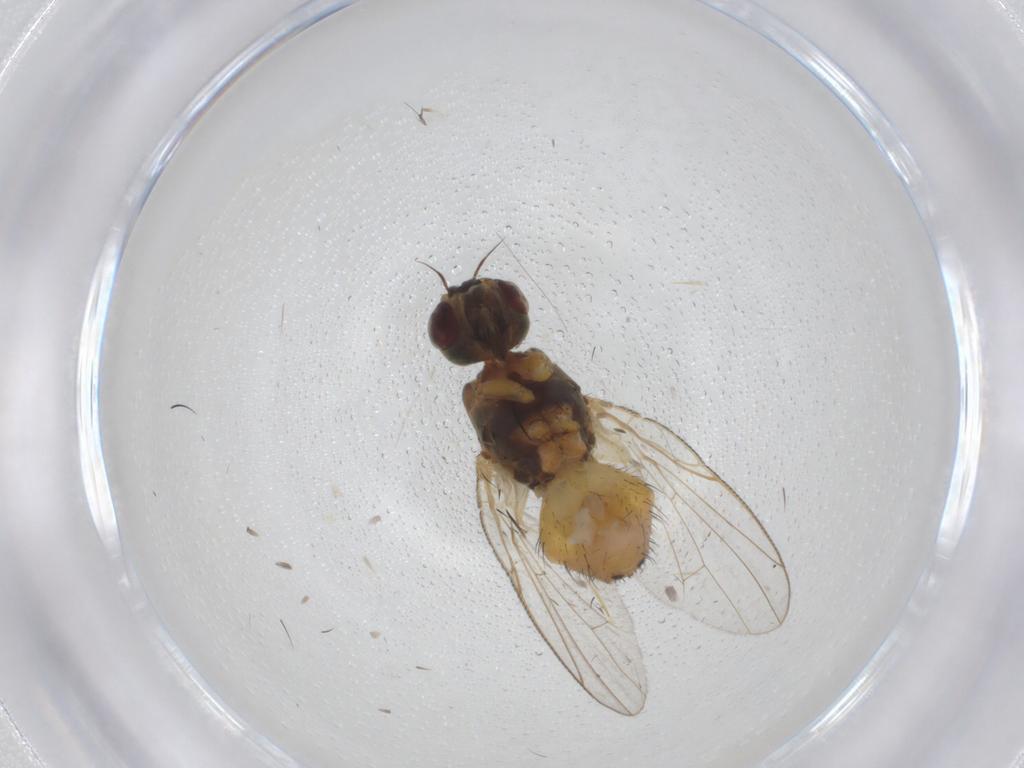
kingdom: Animalia
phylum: Arthropoda
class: Insecta
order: Diptera
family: Muscidae
